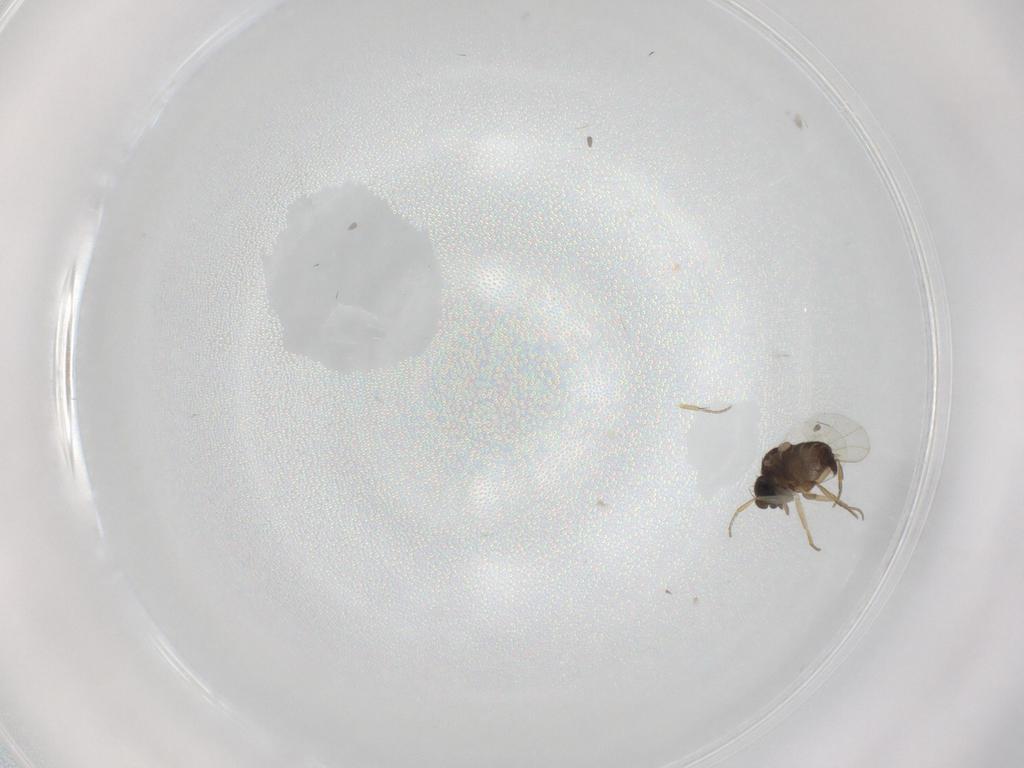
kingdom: Animalia
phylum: Arthropoda
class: Insecta
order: Diptera
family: Phoridae
